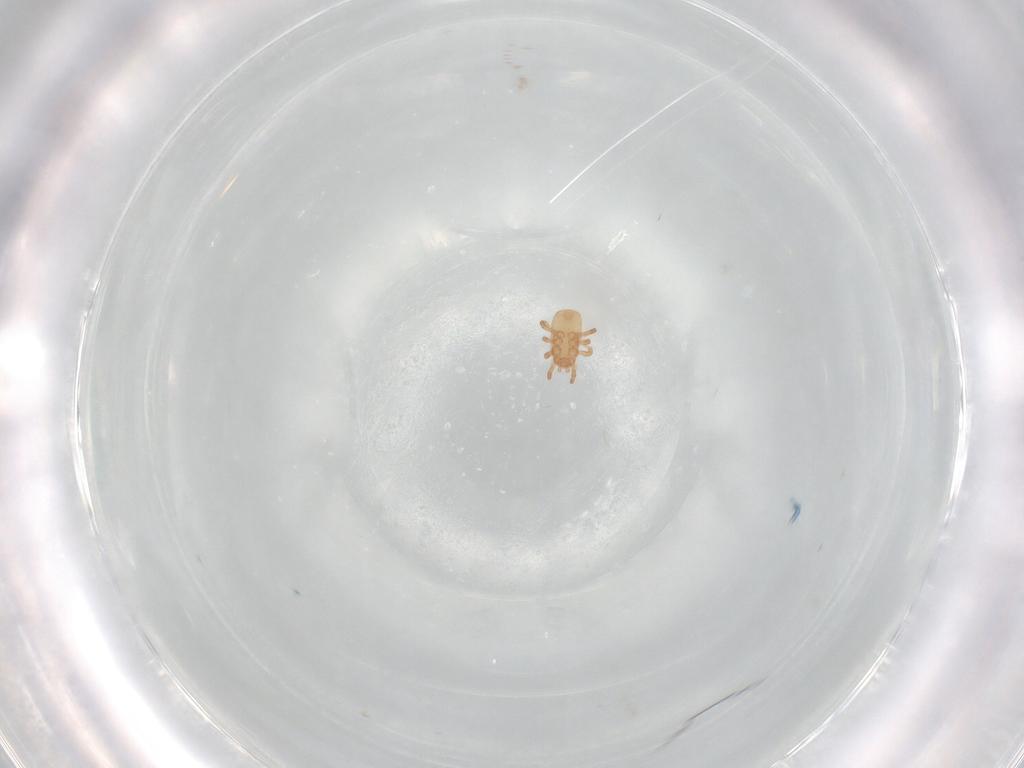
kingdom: Animalia
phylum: Arthropoda
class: Arachnida
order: Mesostigmata
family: Ascidae
